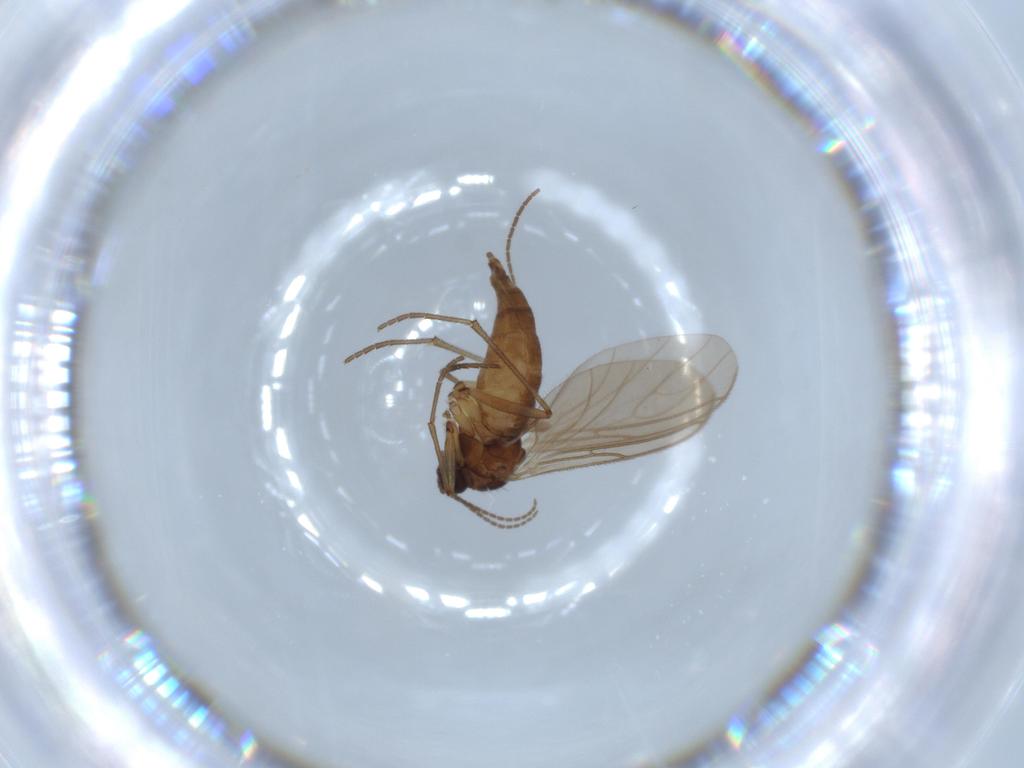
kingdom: Animalia
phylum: Arthropoda
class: Insecta
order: Diptera
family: Sciaridae
